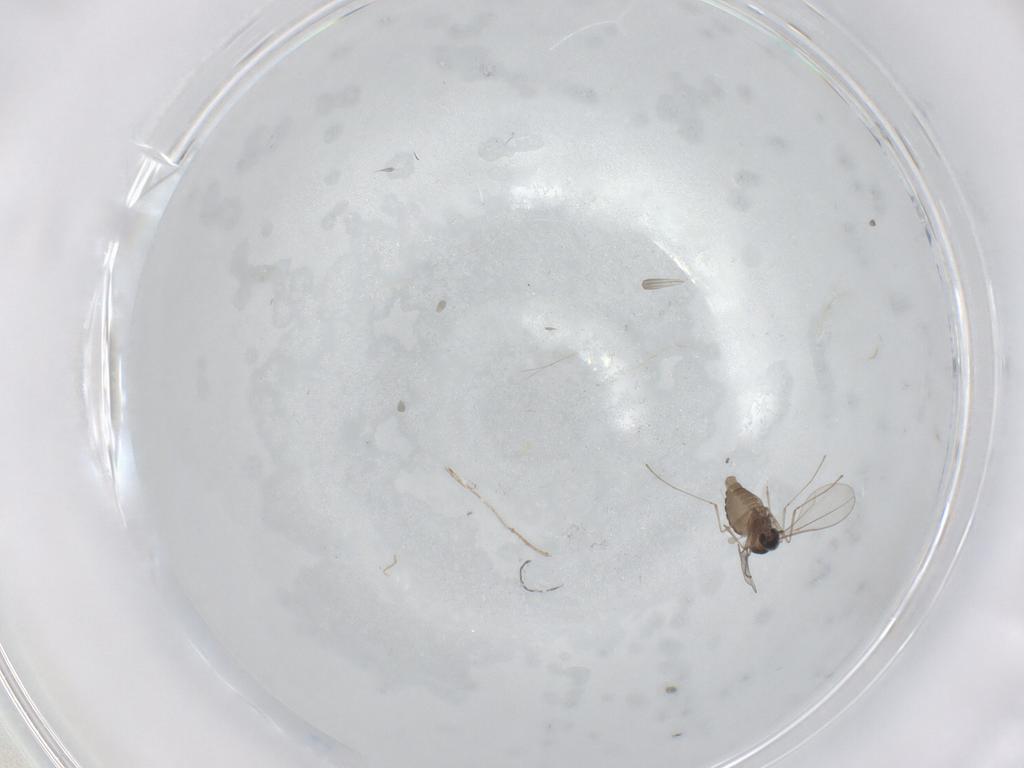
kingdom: Animalia
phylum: Arthropoda
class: Insecta
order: Diptera
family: Cecidomyiidae
